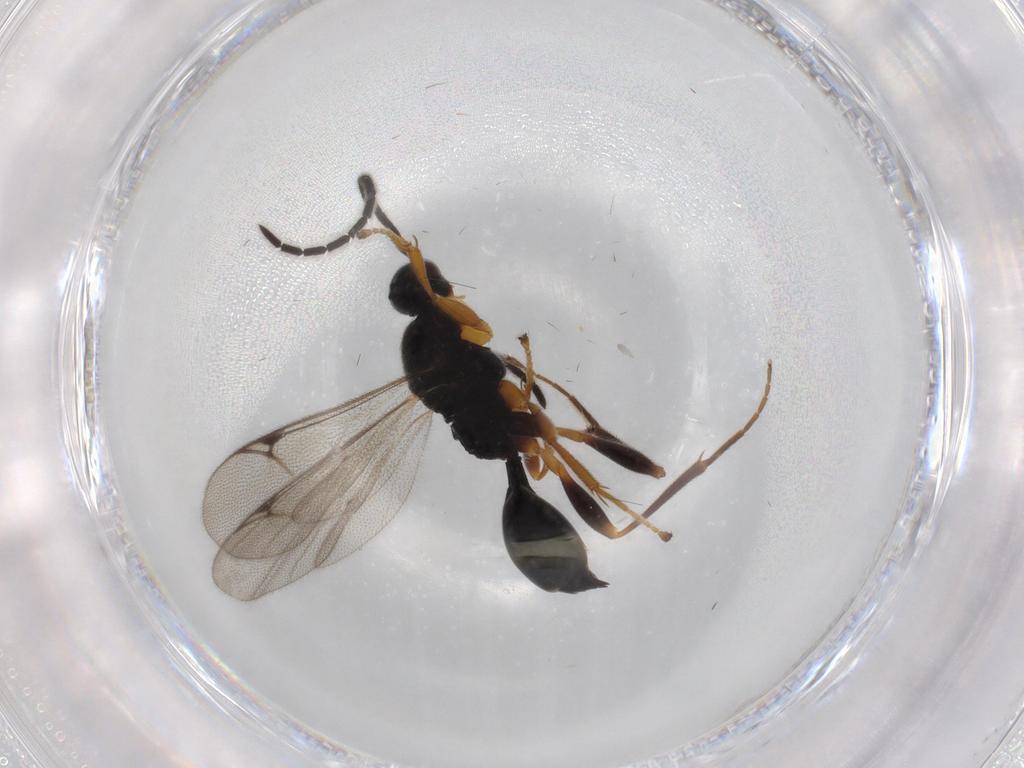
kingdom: Animalia
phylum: Arthropoda
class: Insecta
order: Hymenoptera
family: Proctotrupidae
